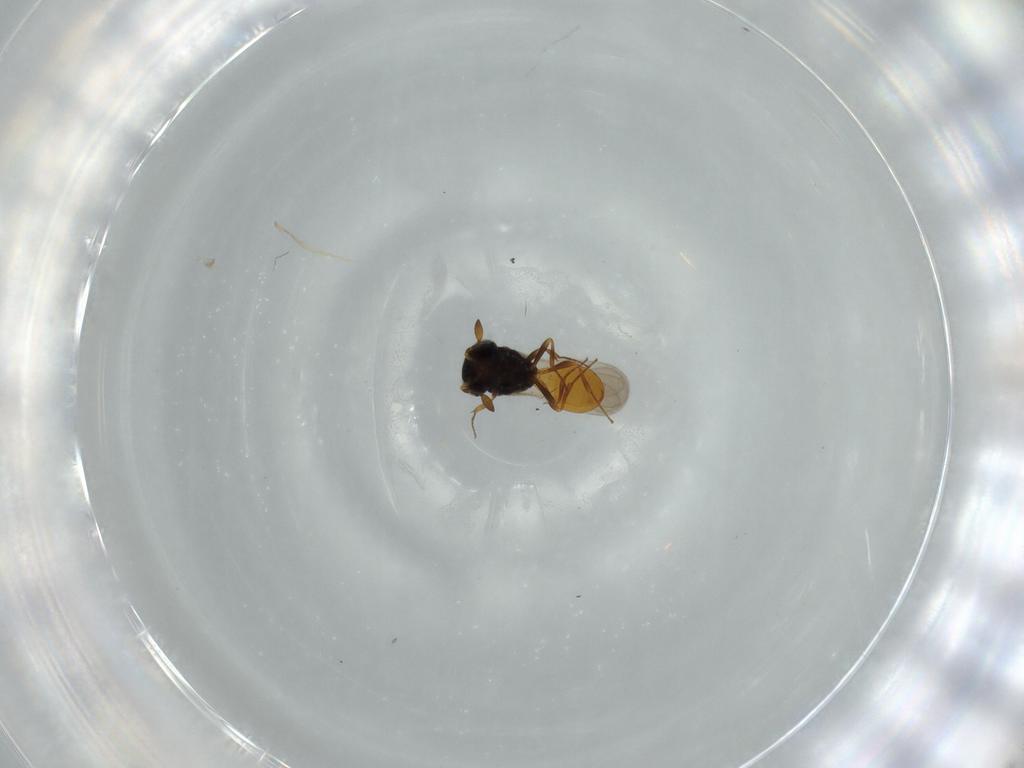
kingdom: Animalia
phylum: Arthropoda
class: Insecta
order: Hymenoptera
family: Scelionidae
